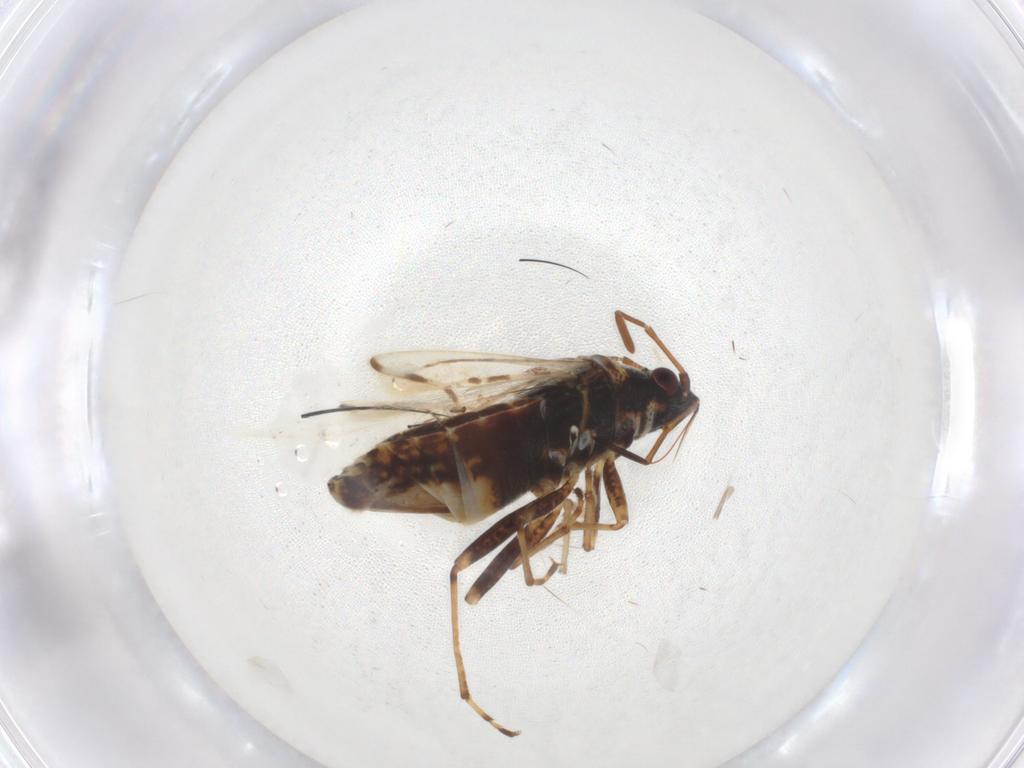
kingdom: Animalia
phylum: Arthropoda
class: Insecta
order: Hemiptera
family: Lygaeidae
